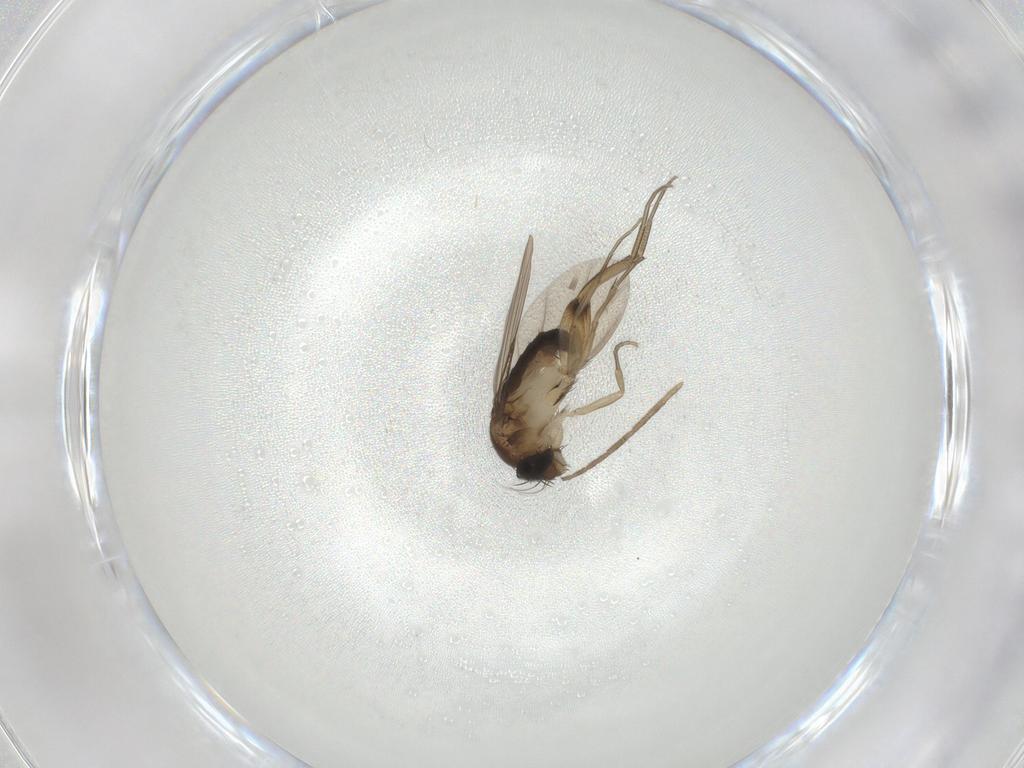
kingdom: Animalia
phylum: Arthropoda
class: Insecta
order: Diptera
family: Phoridae
